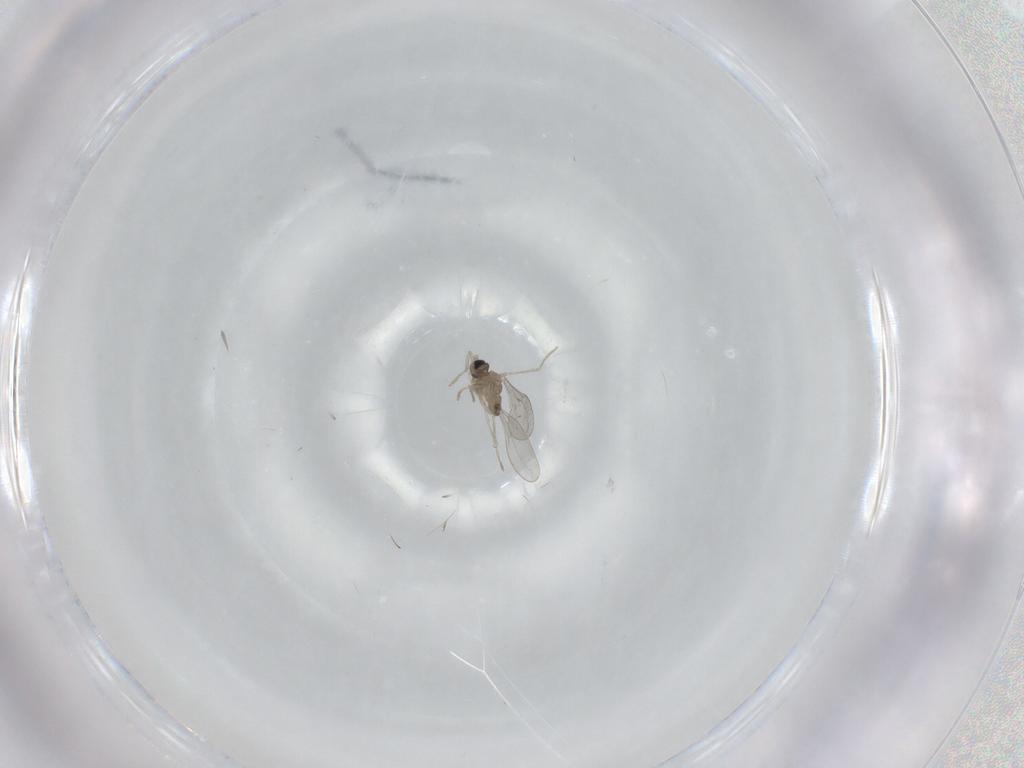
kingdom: Animalia
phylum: Arthropoda
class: Insecta
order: Diptera
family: Cecidomyiidae
